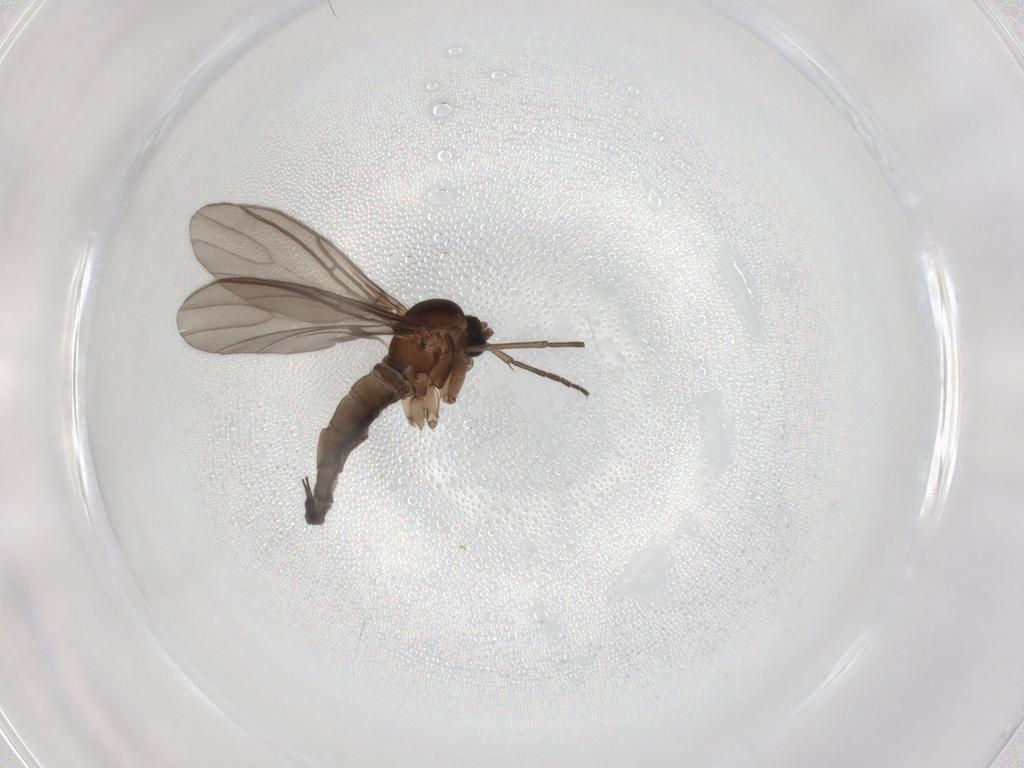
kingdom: Animalia
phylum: Arthropoda
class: Insecta
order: Diptera
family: Sciaridae
